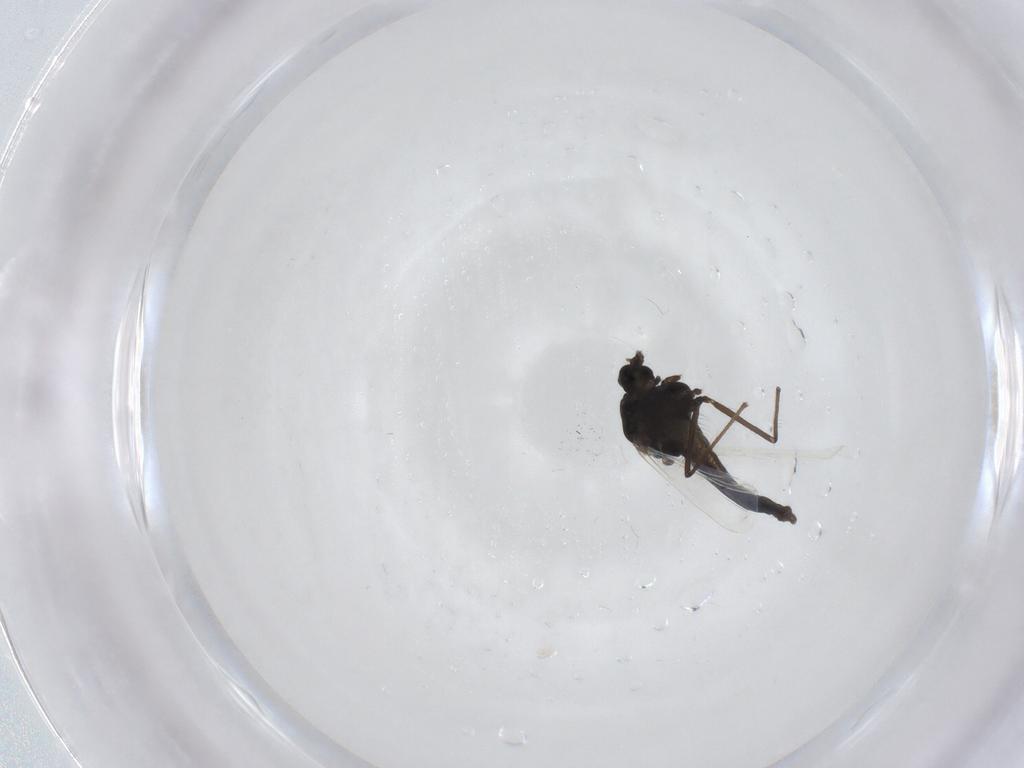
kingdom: Animalia
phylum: Arthropoda
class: Insecta
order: Diptera
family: Chironomidae
